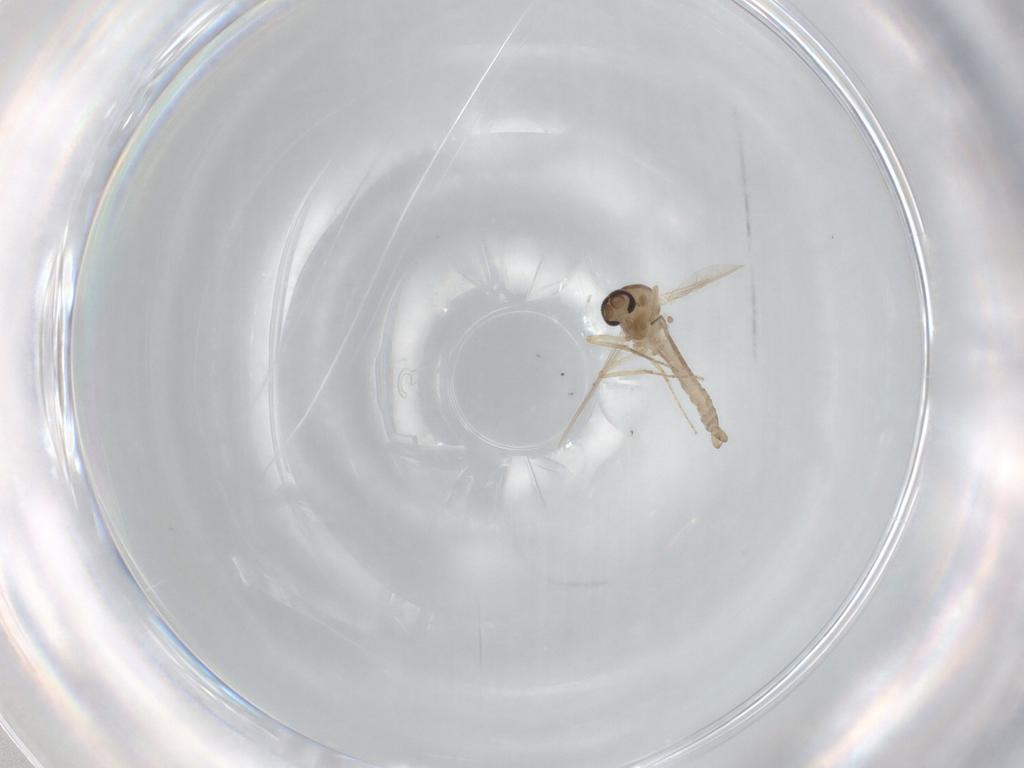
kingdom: Animalia
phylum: Arthropoda
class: Insecta
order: Diptera
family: Ceratopogonidae
